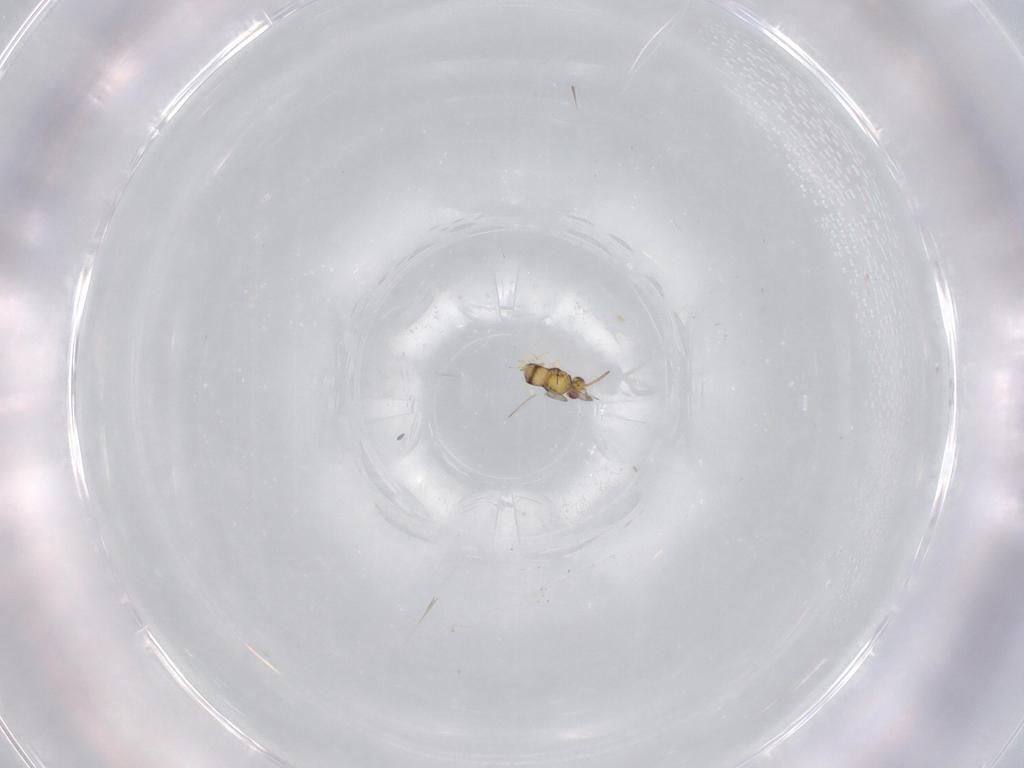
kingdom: Animalia
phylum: Arthropoda
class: Insecta
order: Hymenoptera
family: Aphelinidae
